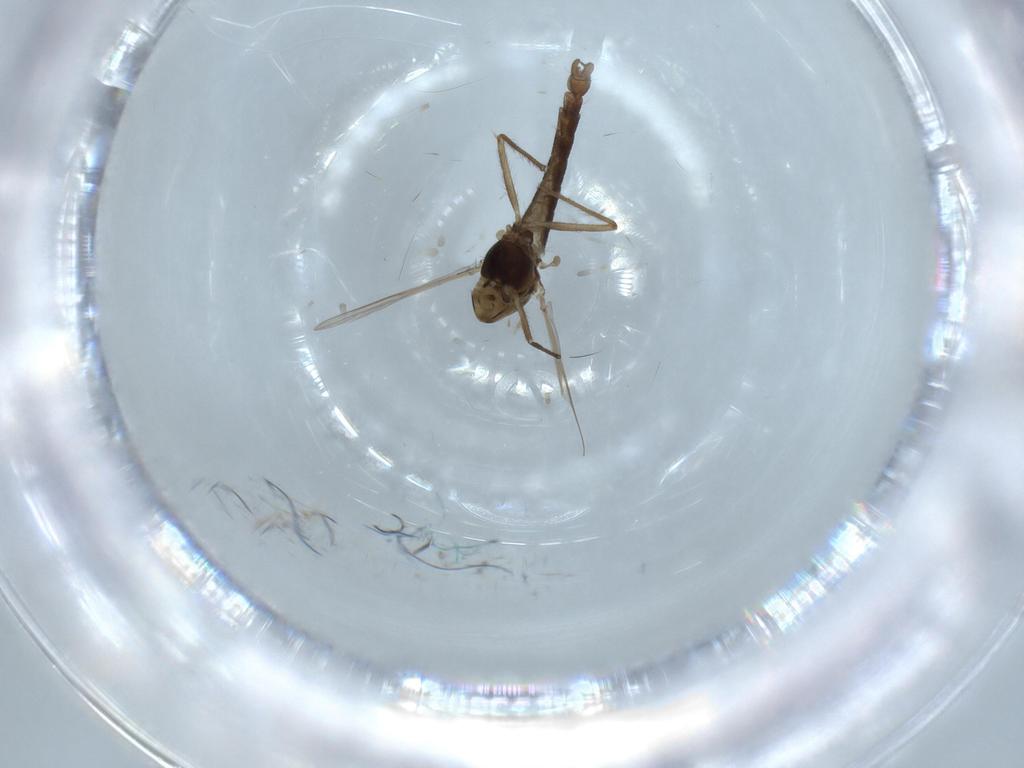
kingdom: Animalia
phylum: Arthropoda
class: Insecta
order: Diptera
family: Chironomidae
